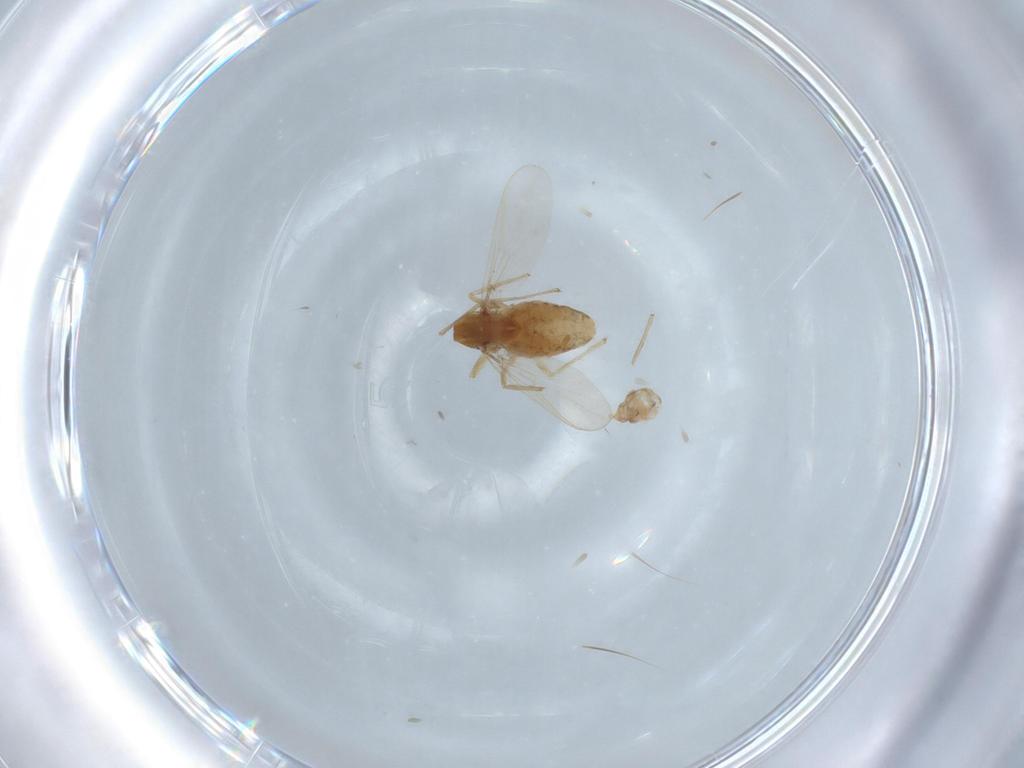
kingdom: Animalia
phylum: Arthropoda
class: Insecta
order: Diptera
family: Chironomidae
